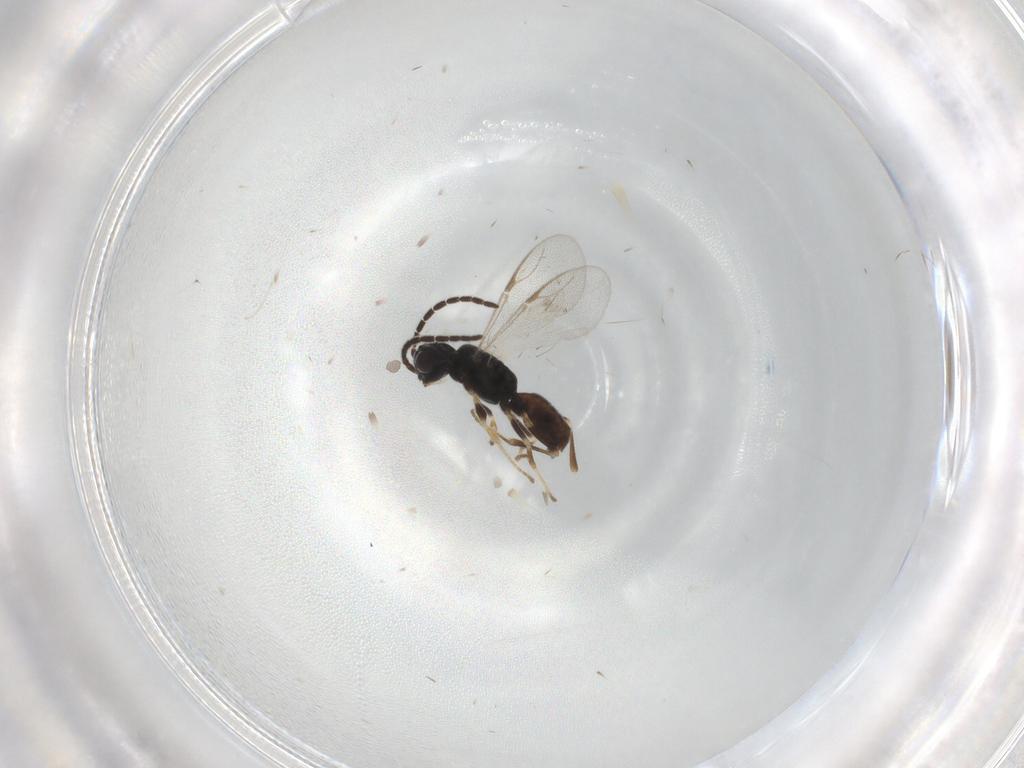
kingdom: Animalia
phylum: Arthropoda
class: Insecta
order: Hymenoptera
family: Dryinidae
